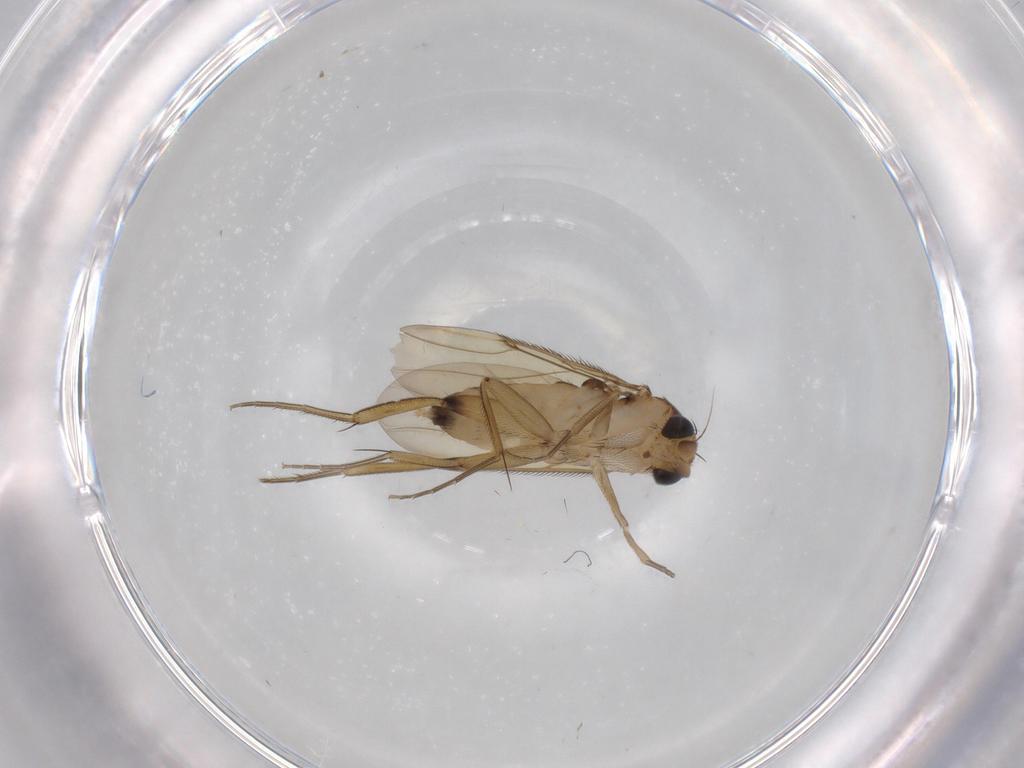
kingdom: Animalia
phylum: Arthropoda
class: Insecta
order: Diptera
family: Phoridae
